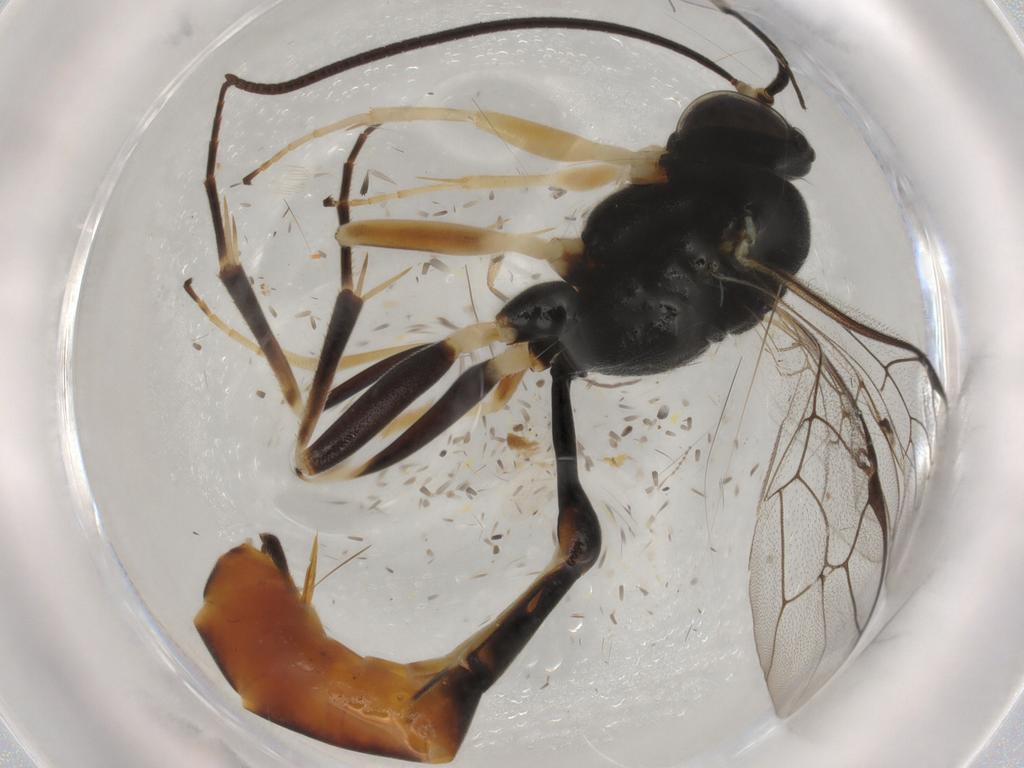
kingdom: Animalia
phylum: Arthropoda
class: Insecta
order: Hymenoptera
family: Ichneumonidae
